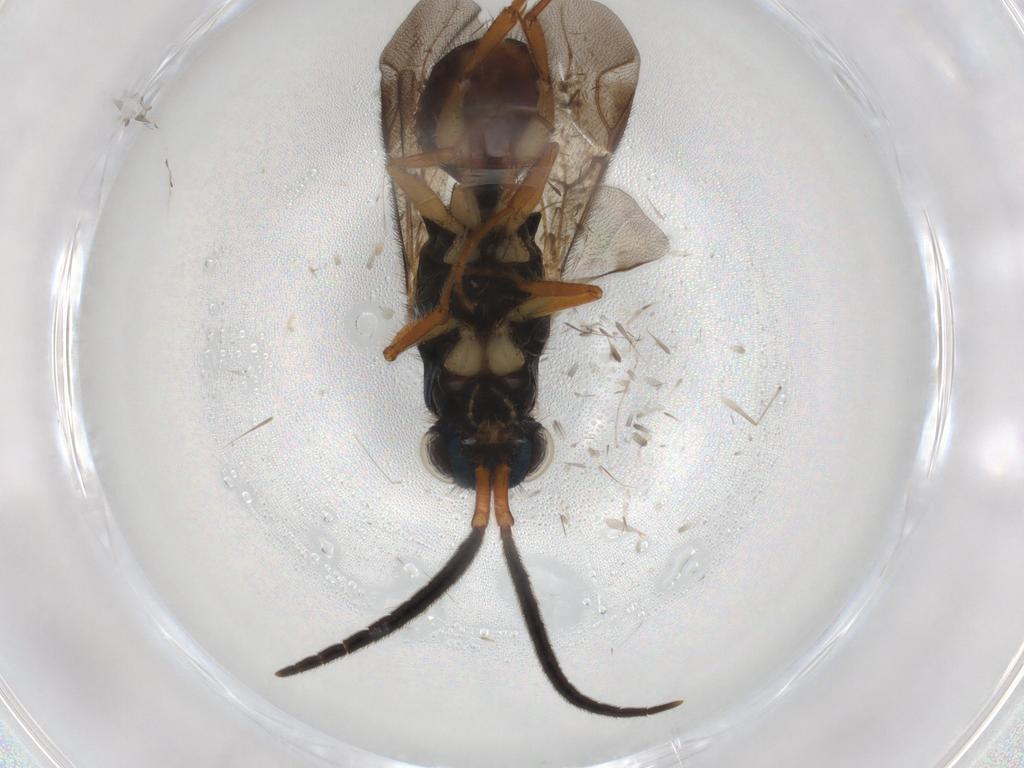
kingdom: Animalia
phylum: Arthropoda
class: Insecta
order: Hymenoptera
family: Chrysididae
